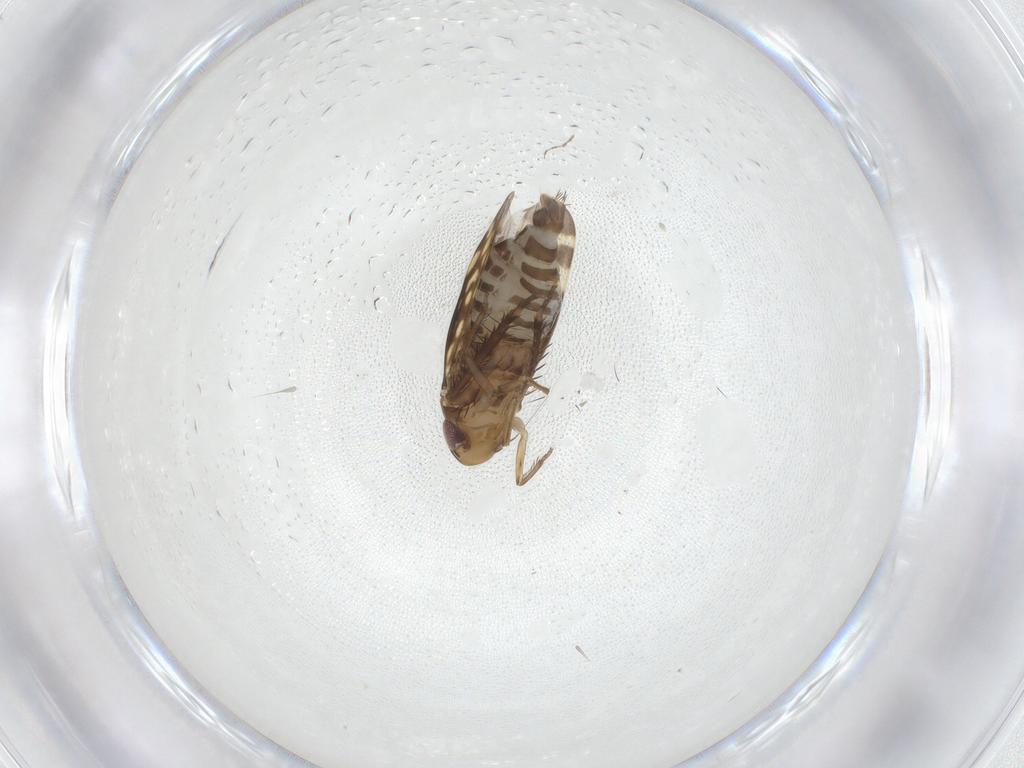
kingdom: Animalia
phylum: Arthropoda
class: Insecta
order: Hemiptera
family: Cicadellidae
